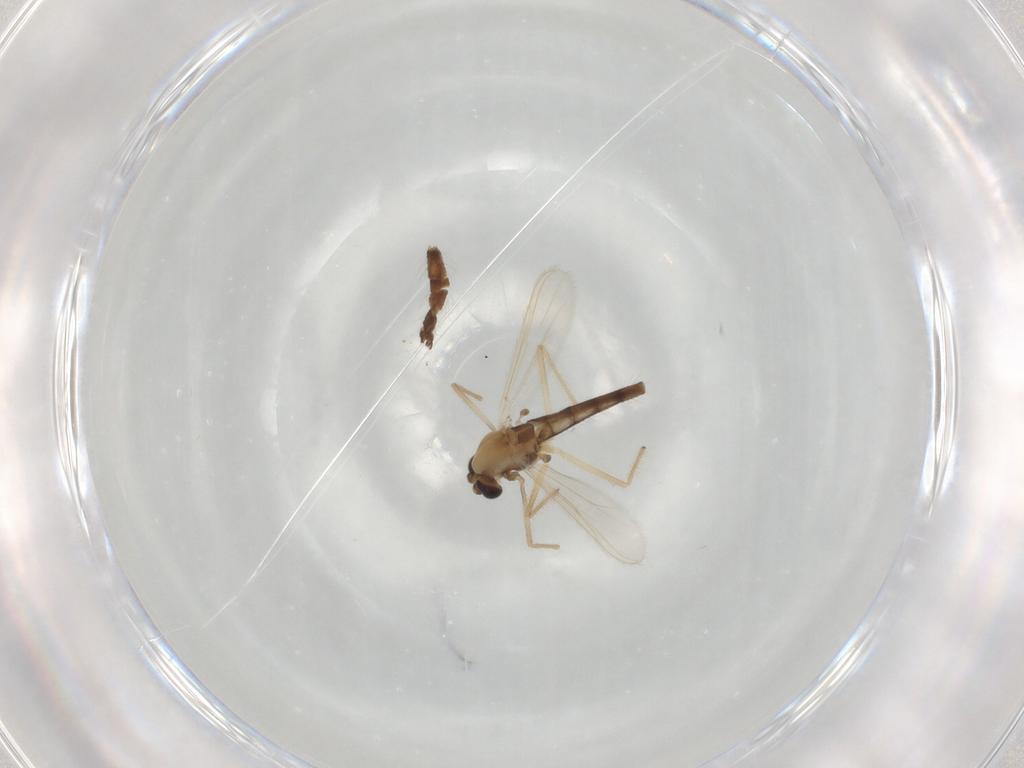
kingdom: Animalia
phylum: Arthropoda
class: Insecta
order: Diptera
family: Chironomidae
